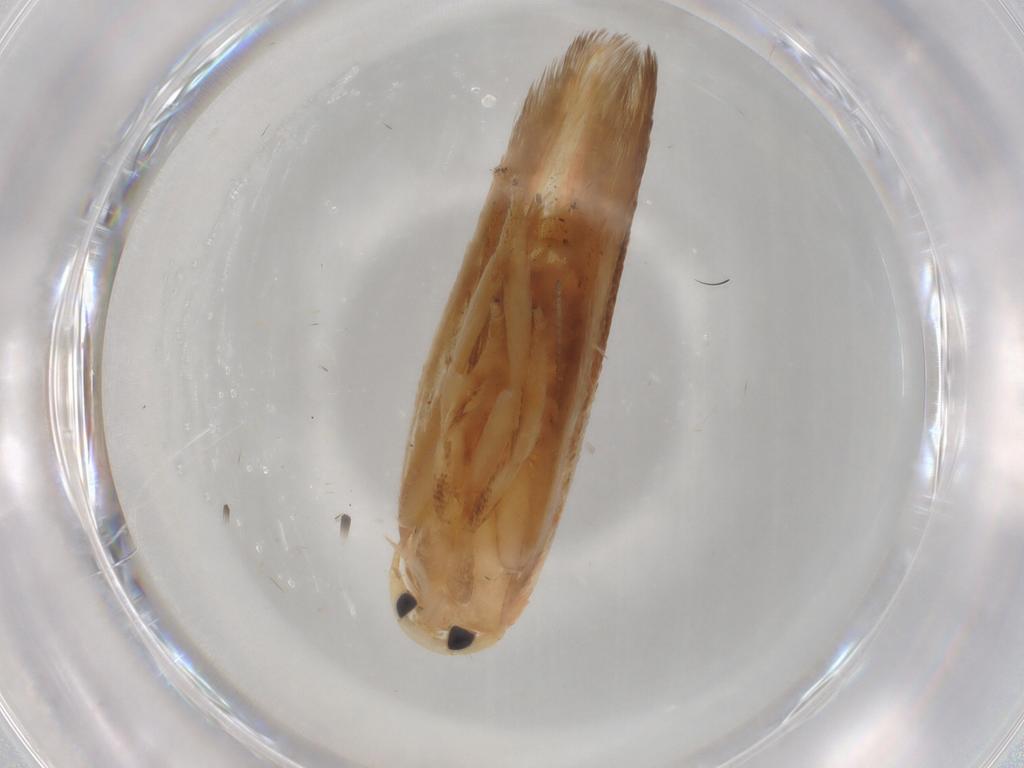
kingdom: Animalia
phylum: Arthropoda
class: Insecta
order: Lepidoptera
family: Geometridae
